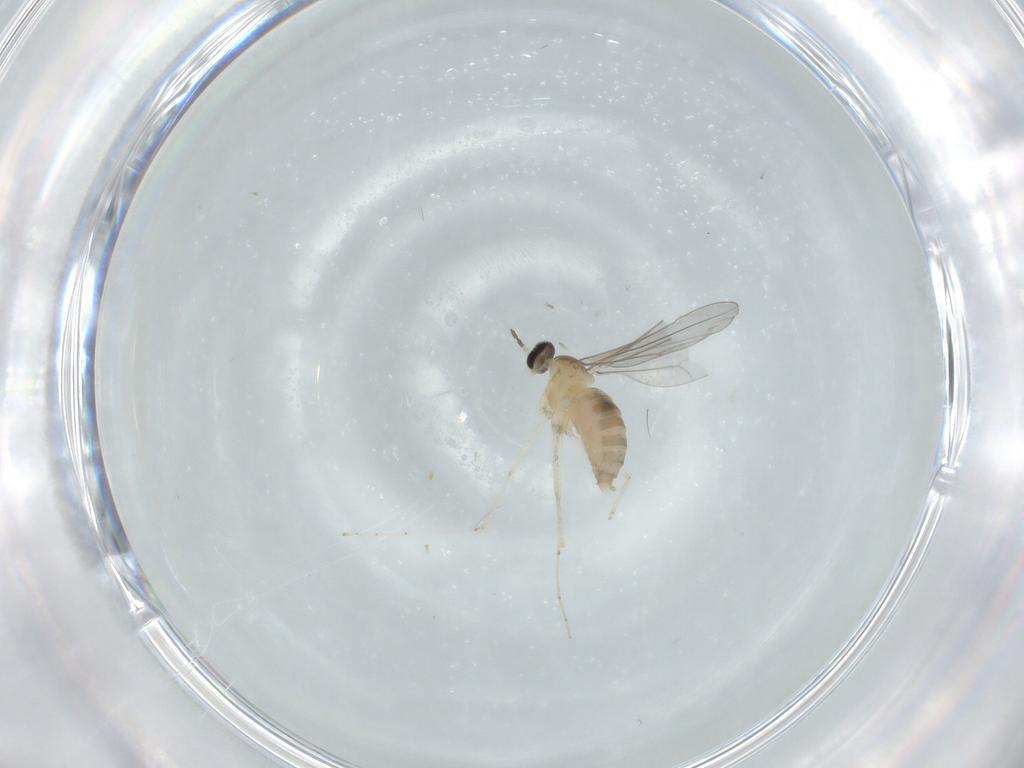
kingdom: Animalia
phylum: Arthropoda
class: Insecta
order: Diptera
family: Cecidomyiidae
